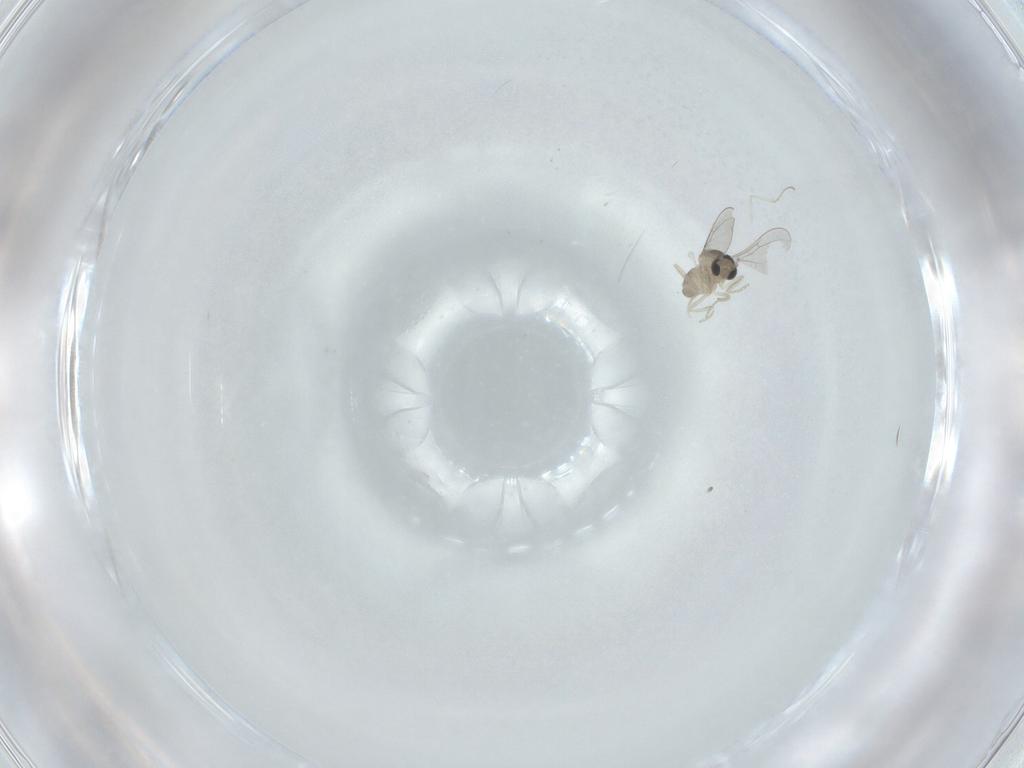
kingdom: Animalia
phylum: Arthropoda
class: Insecta
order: Diptera
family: Cecidomyiidae
